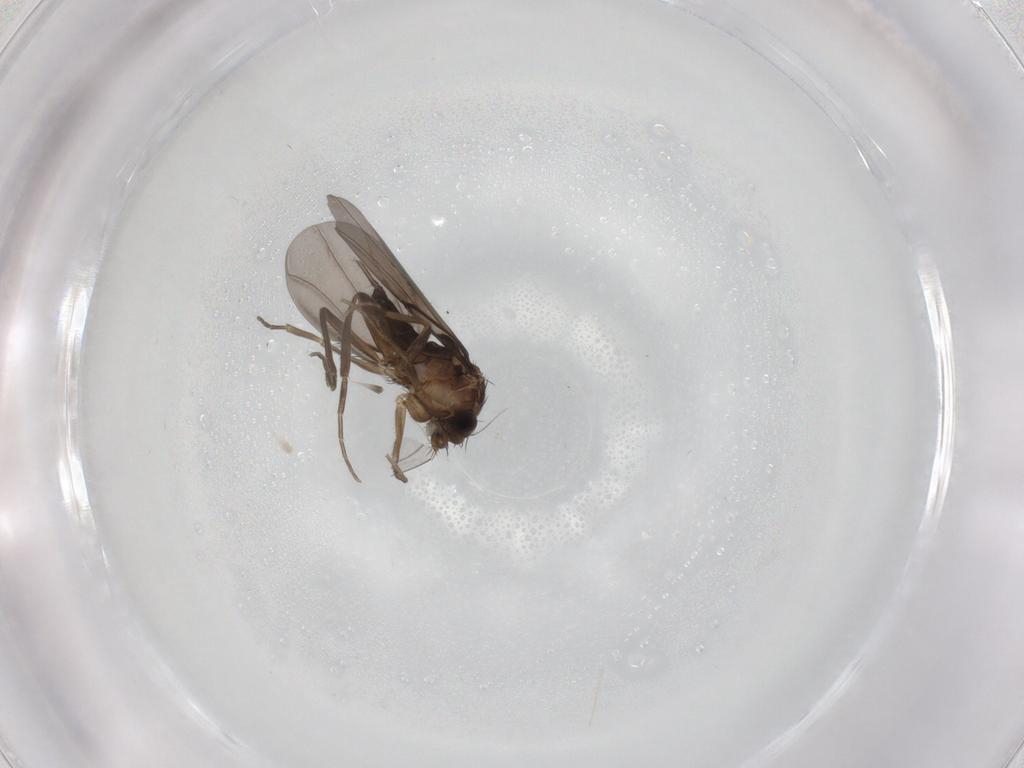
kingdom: Animalia
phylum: Arthropoda
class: Insecta
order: Diptera
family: Phoridae
